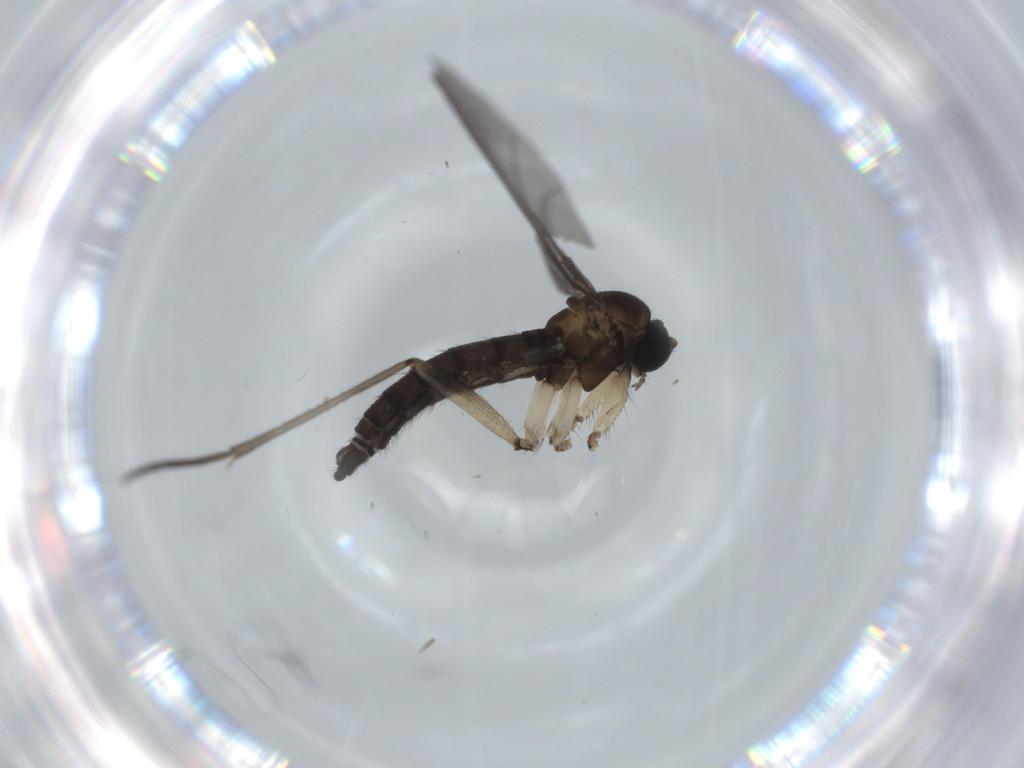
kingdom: Animalia
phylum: Arthropoda
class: Insecta
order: Diptera
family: Sciaridae
